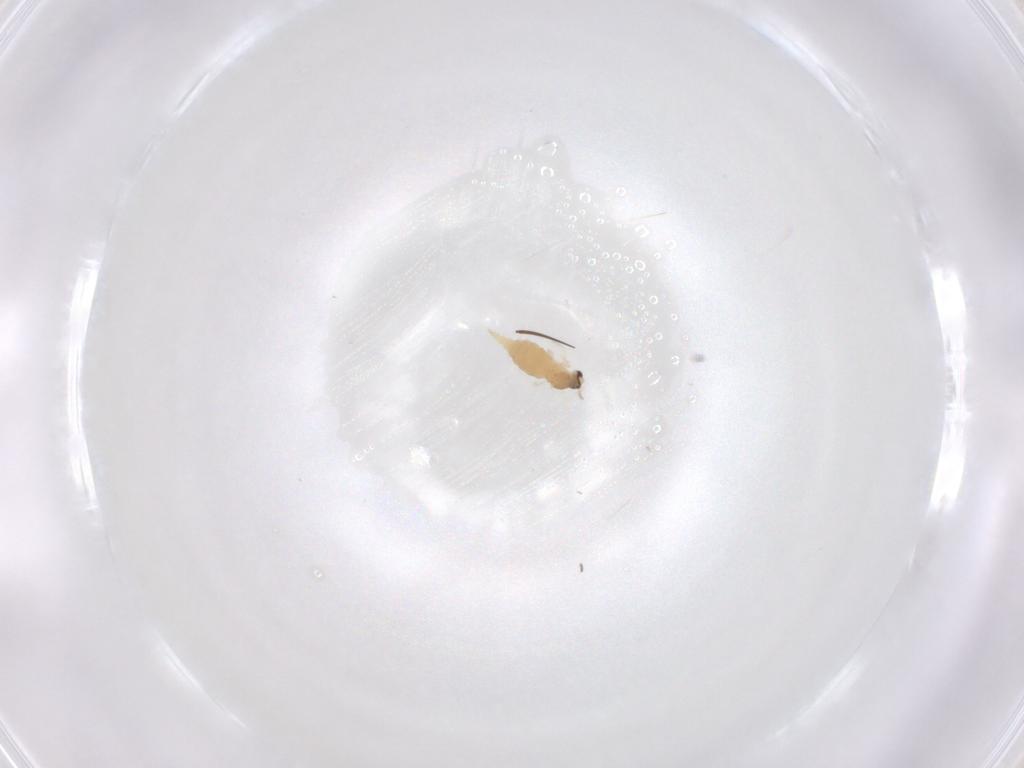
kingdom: Animalia
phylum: Arthropoda
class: Insecta
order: Diptera
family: Cecidomyiidae
